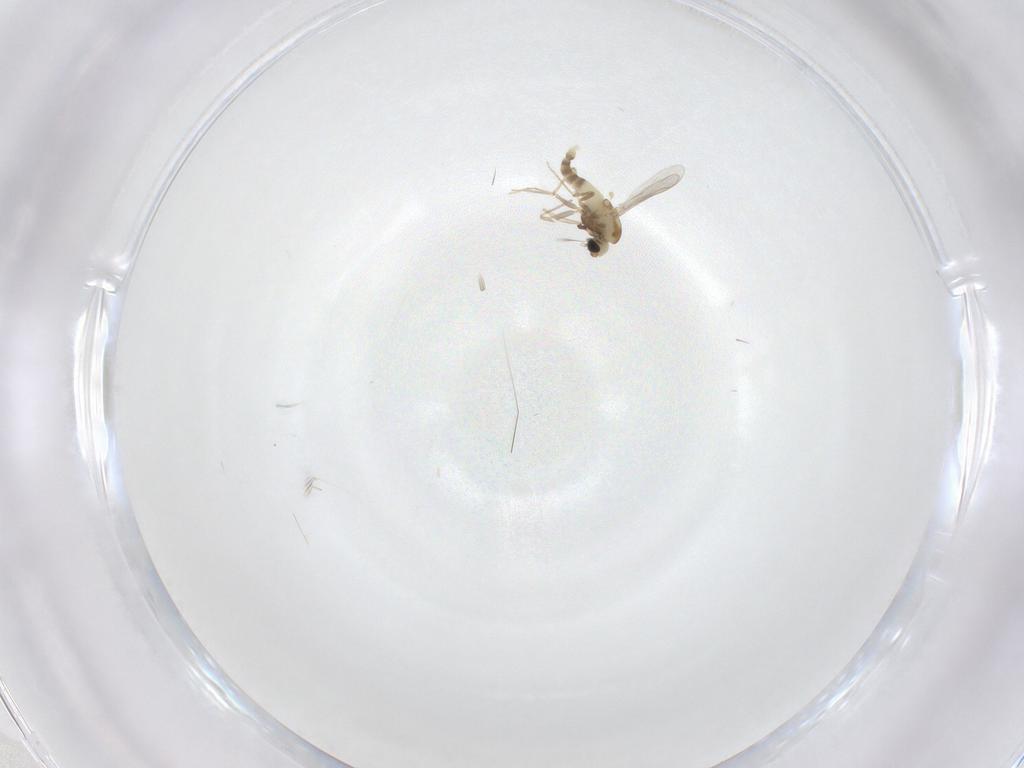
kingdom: Animalia
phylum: Arthropoda
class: Insecta
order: Diptera
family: Chironomidae
